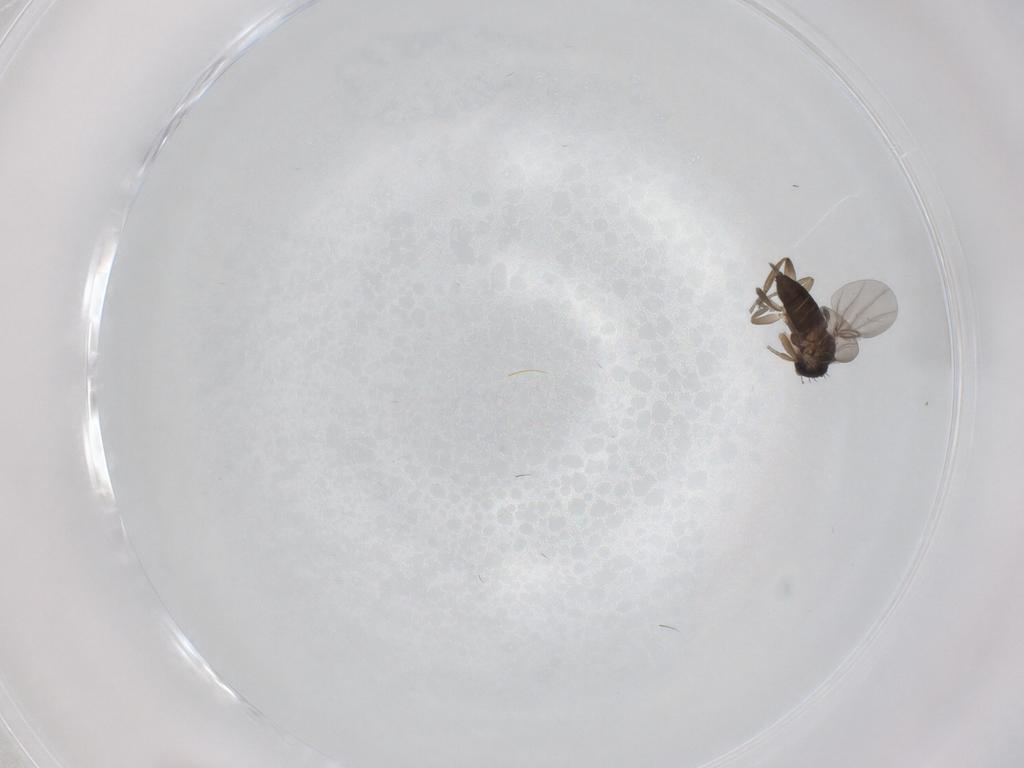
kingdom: Animalia
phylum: Arthropoda
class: Insecta
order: Diptera
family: Phoridae
